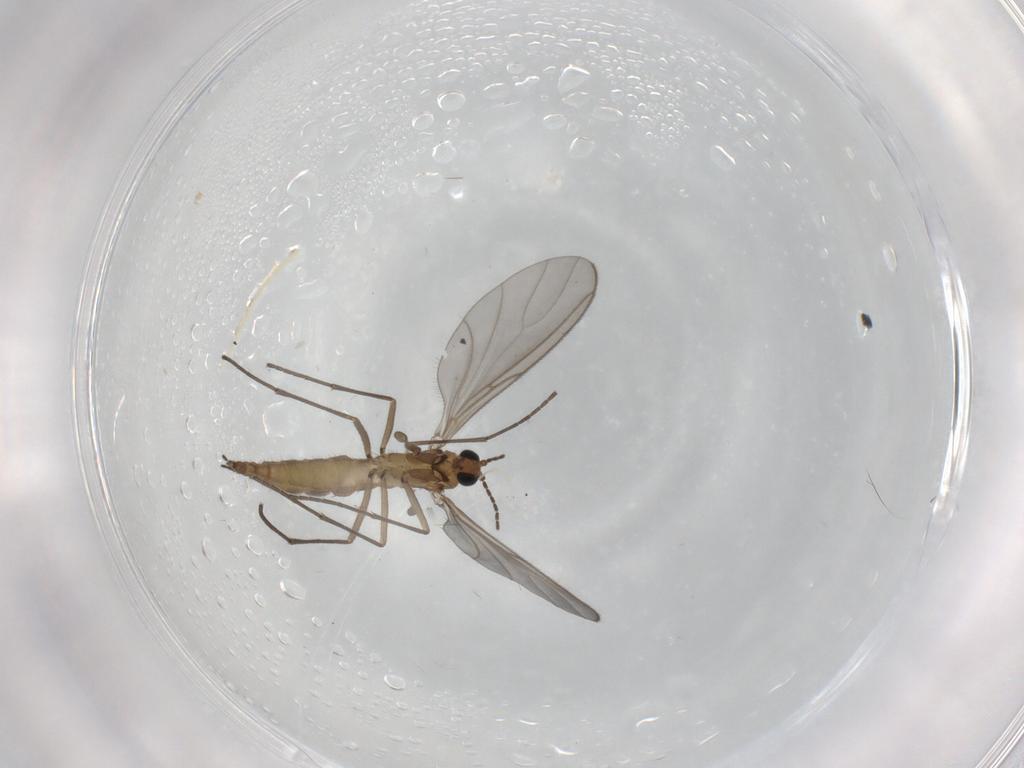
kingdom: Animalia
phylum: Arthropoda
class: Insecta
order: Diptera
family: Sciaridae
